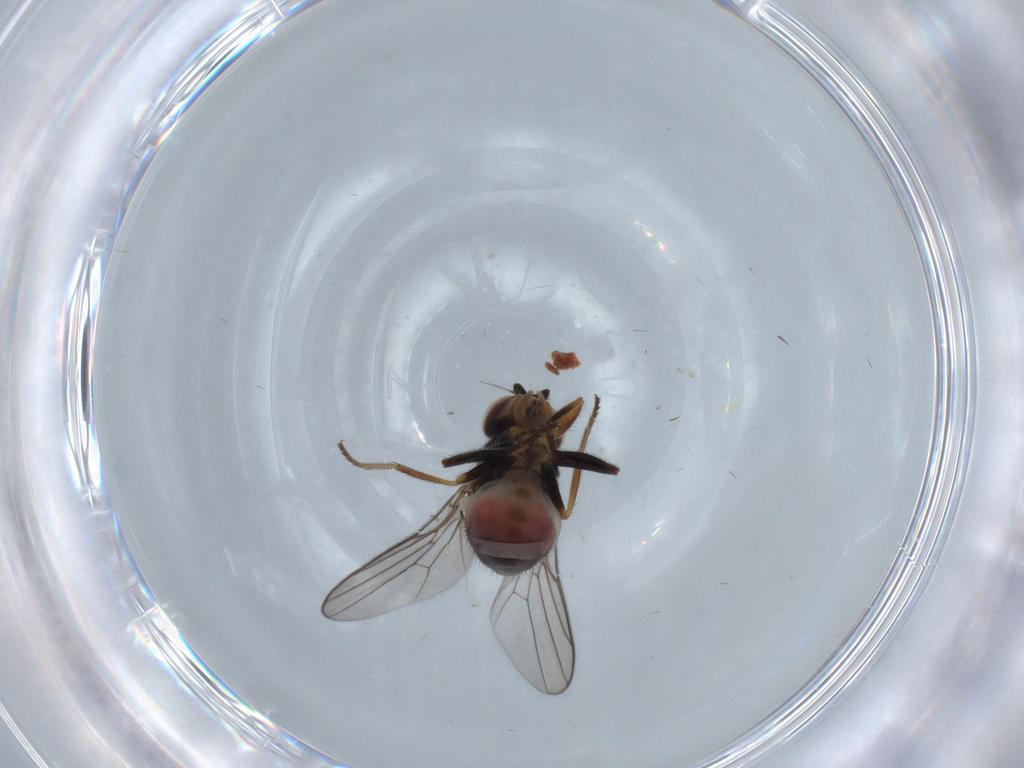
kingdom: Animalia
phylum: Arthropoda
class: Insecta
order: Diptera
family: Chloropidae
